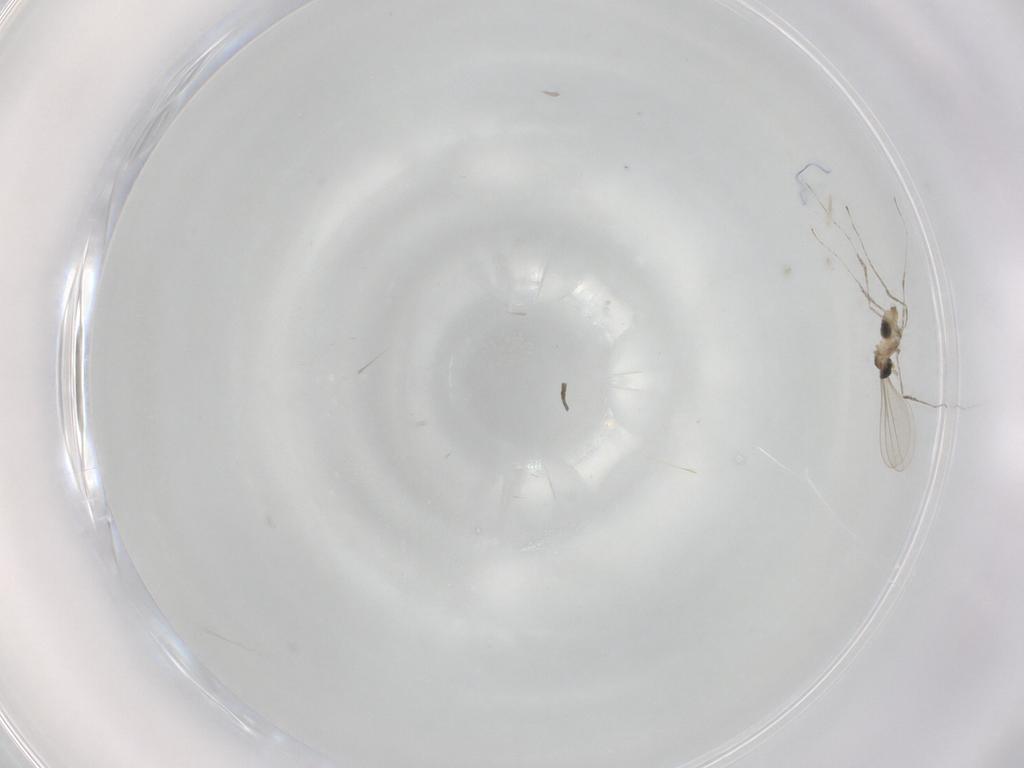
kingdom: Animalia
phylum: Arthropoda
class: Insecta
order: Diptera
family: Cecidomyiidae
